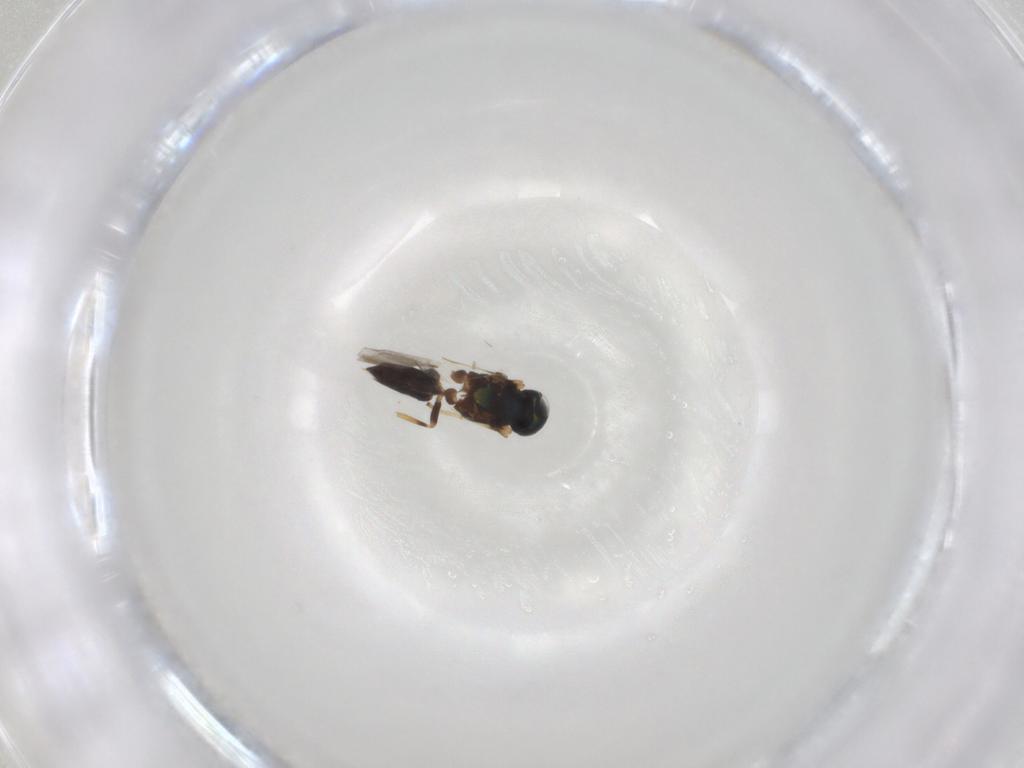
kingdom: Animalia
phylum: Arthropoda
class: Insecta
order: Hymenoptera
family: Encyrtidae
